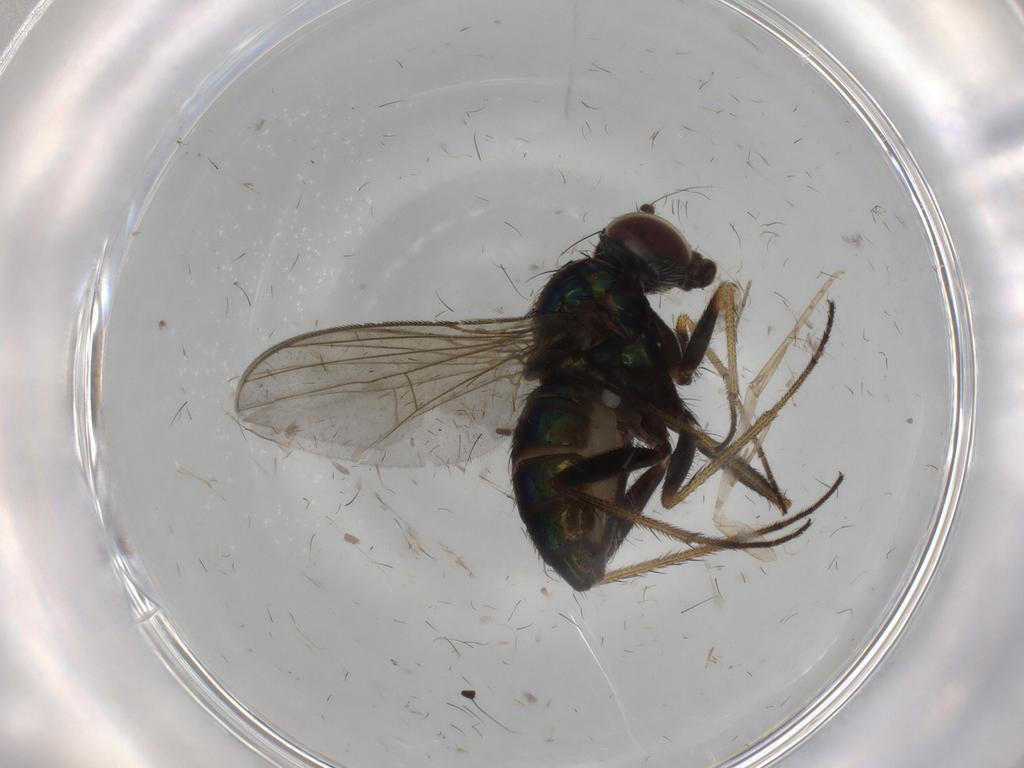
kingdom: Animalia
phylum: Arthropoda
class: Insecta
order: Diptera
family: Dolichopodidae
